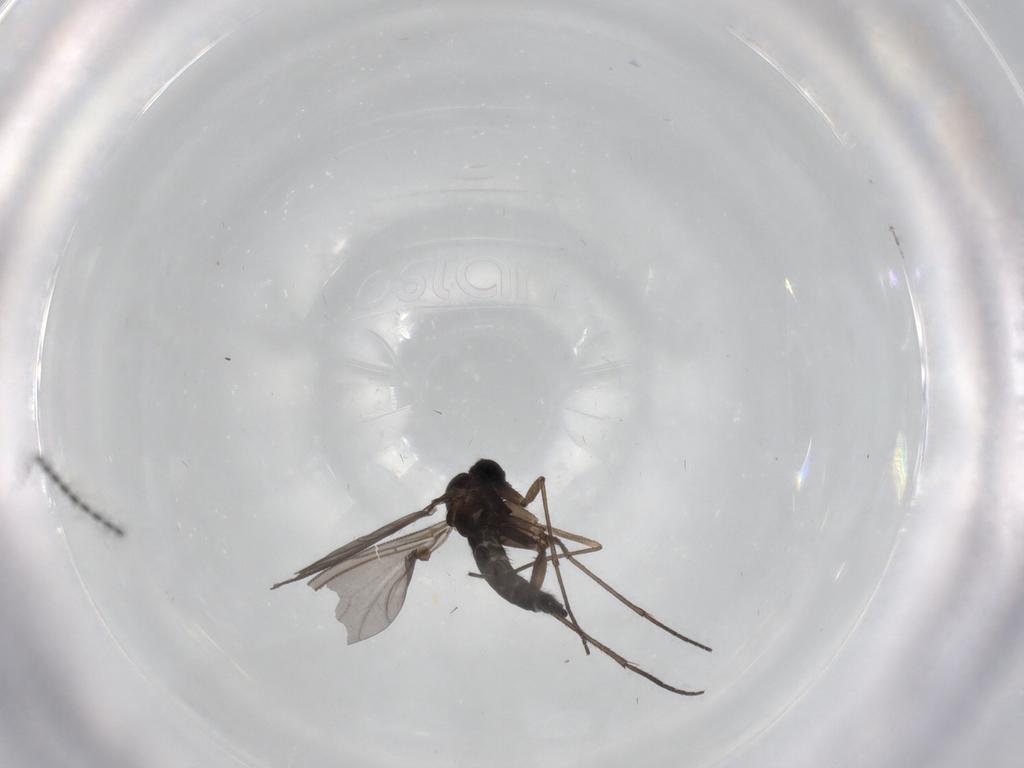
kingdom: Animalia
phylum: Arthropoda
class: Insecta
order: Diptera
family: Sciaridae
